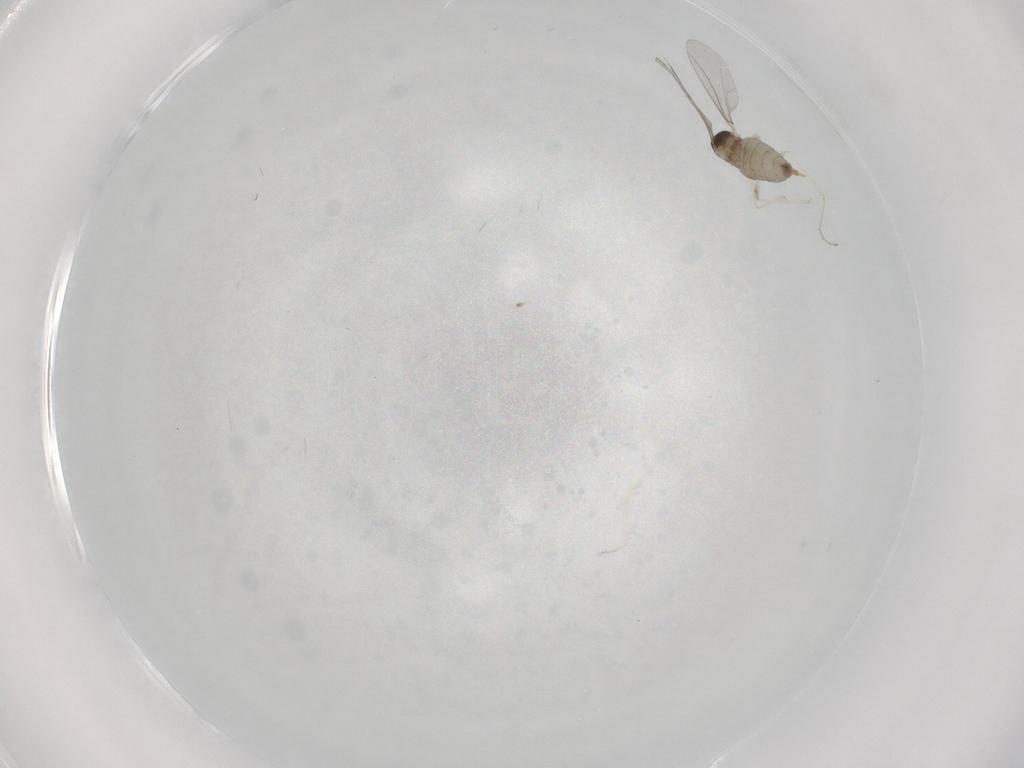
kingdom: Animalia
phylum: Arthropoda
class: Insecta
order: Diptera
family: Cecidomyiidae
